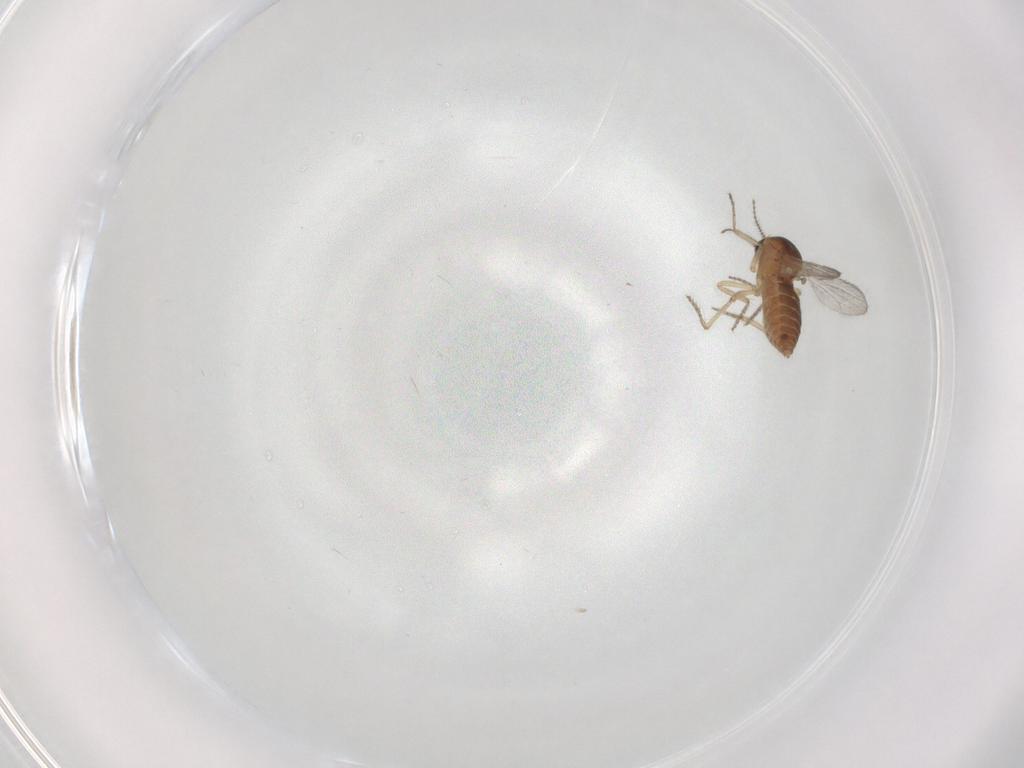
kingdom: Animalia
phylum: Arthropoda
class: Insecta
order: Diptera
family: Ceratopogonidae
